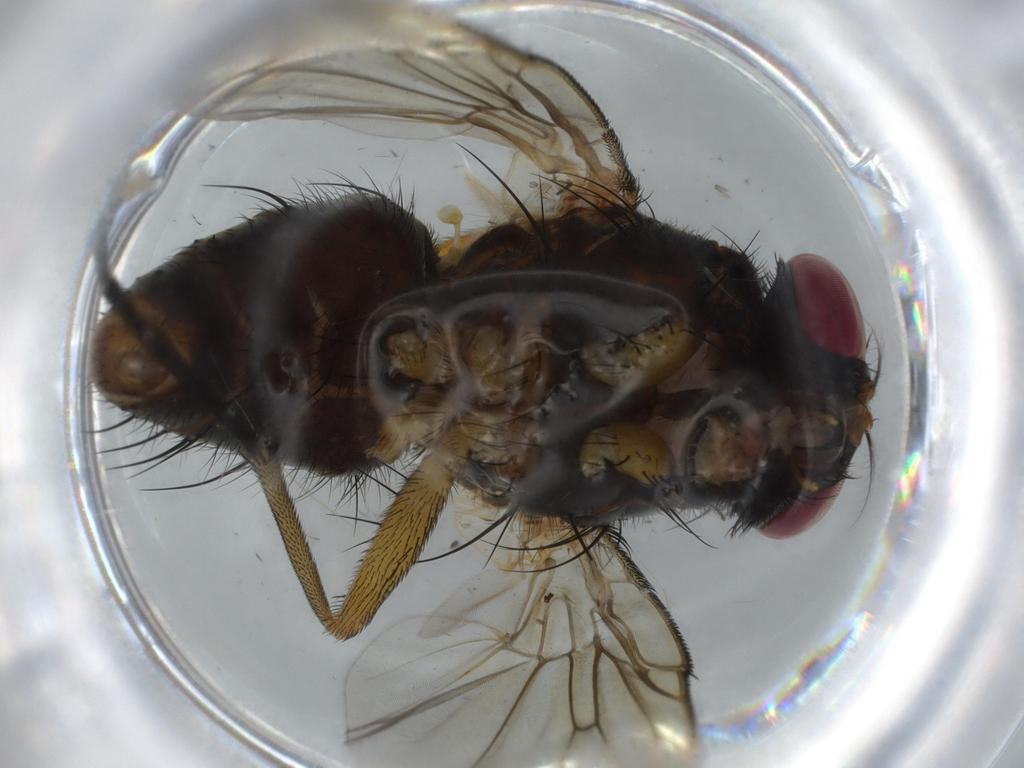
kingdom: Animalia
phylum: Arthropoda
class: Insecta
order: Diptera
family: Muscidae
